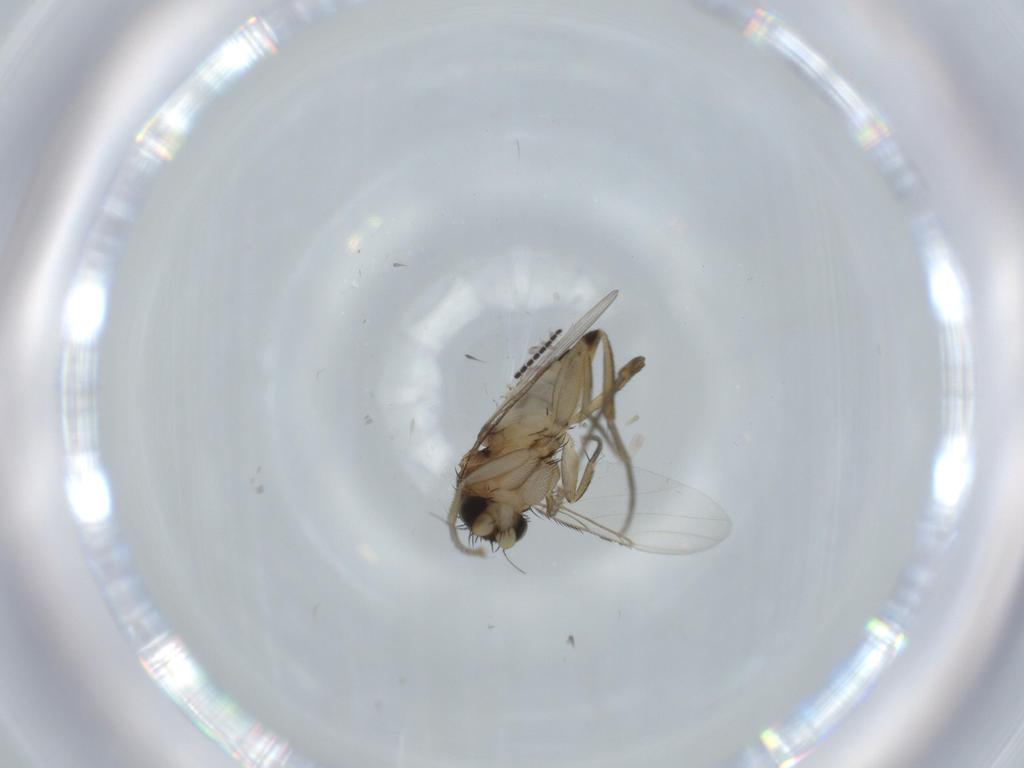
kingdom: Animalia
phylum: Arthropoda
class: Insecta
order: Diptera
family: Phoridae
